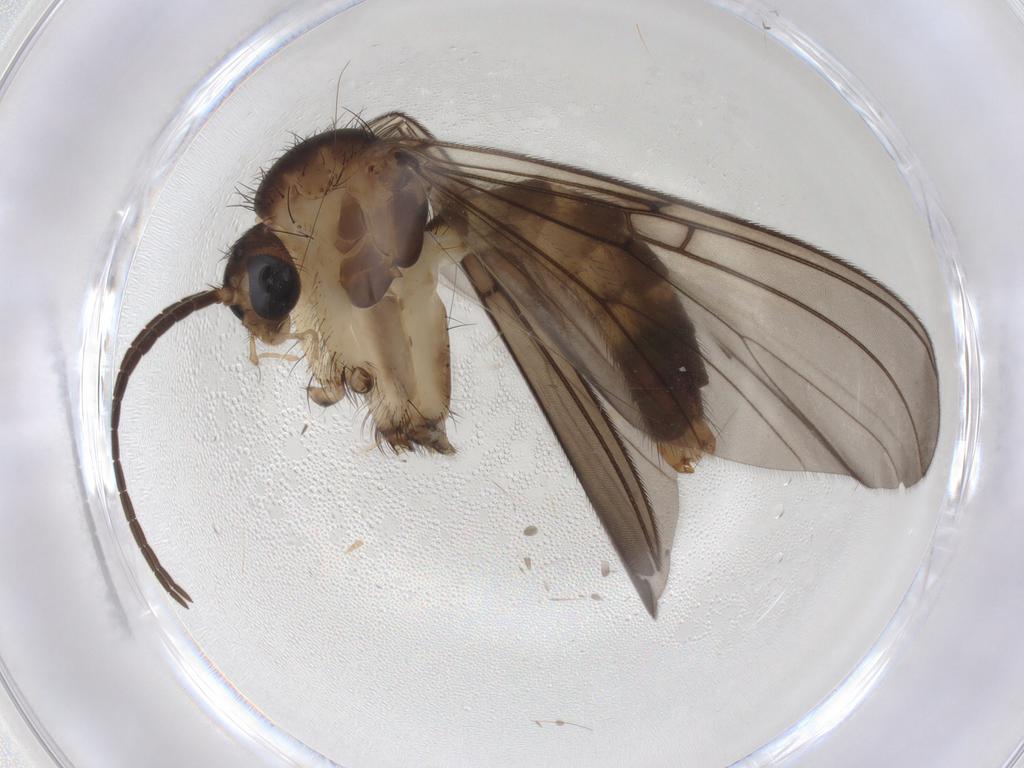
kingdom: Animalia
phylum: Arthropoda
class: Insecta
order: Diptera
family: Mycetophilidae
